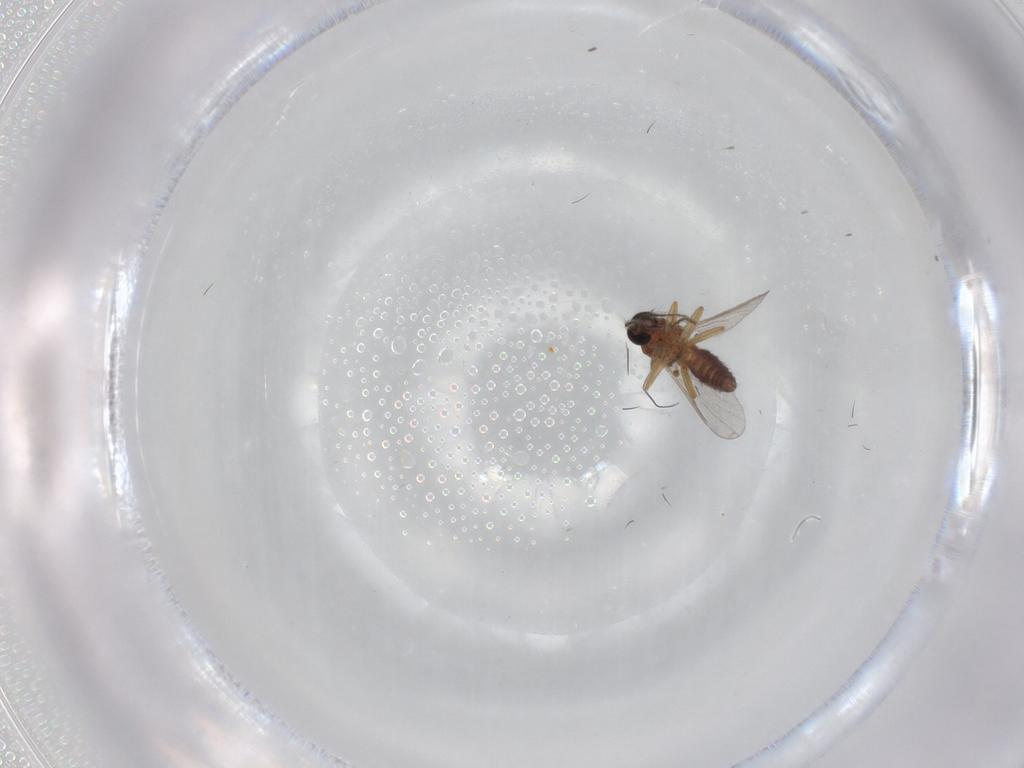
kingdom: Animalia
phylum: Arthropoda
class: Insecta
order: Diptera
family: Ceratopogonidae
